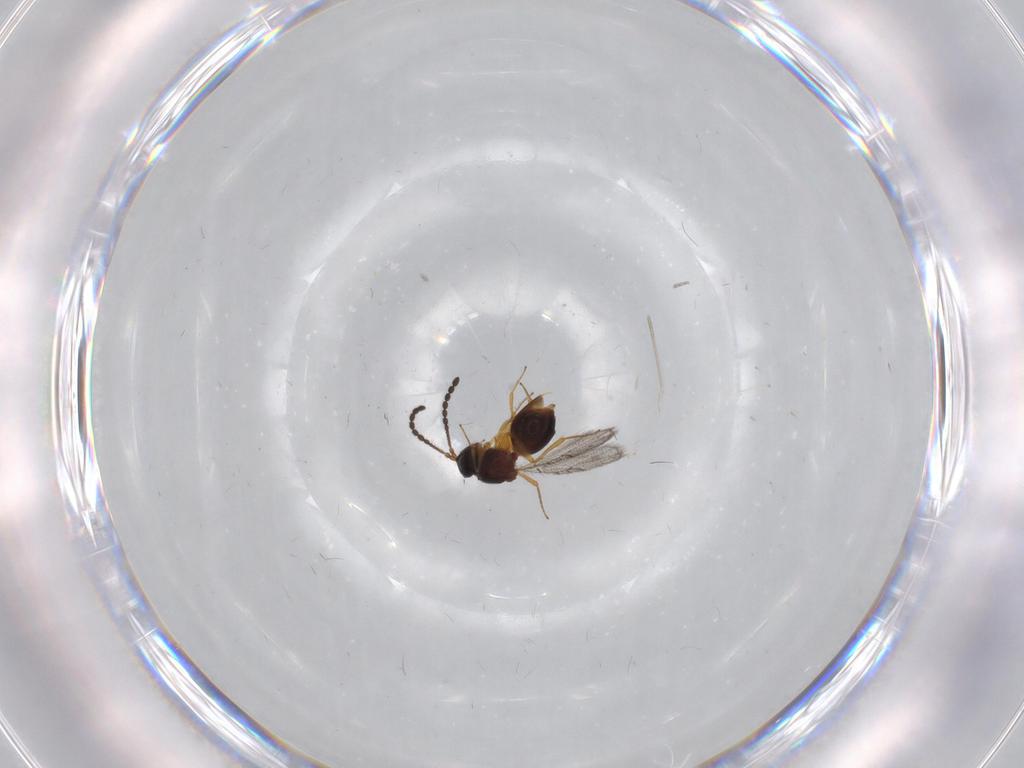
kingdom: Animalia
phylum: Arthropoda
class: Insecta
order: Hymenoptera
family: Figitidae
